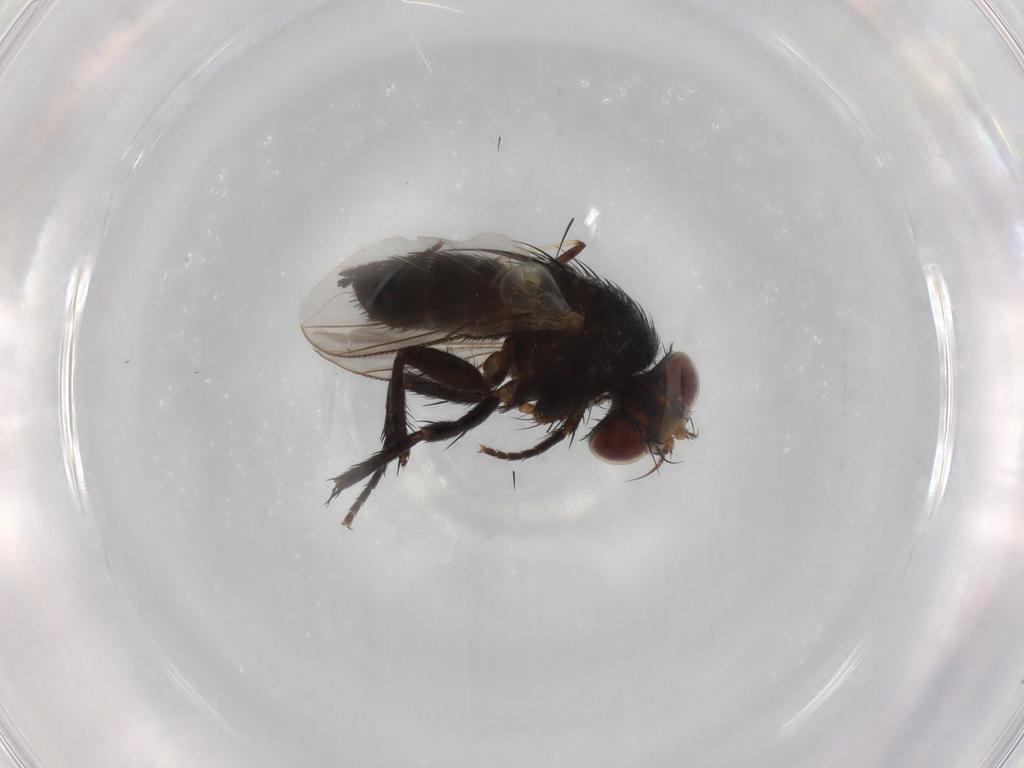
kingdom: Animalia
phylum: Arthropoda
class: Insecta
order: Diptera
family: Tachinidae
